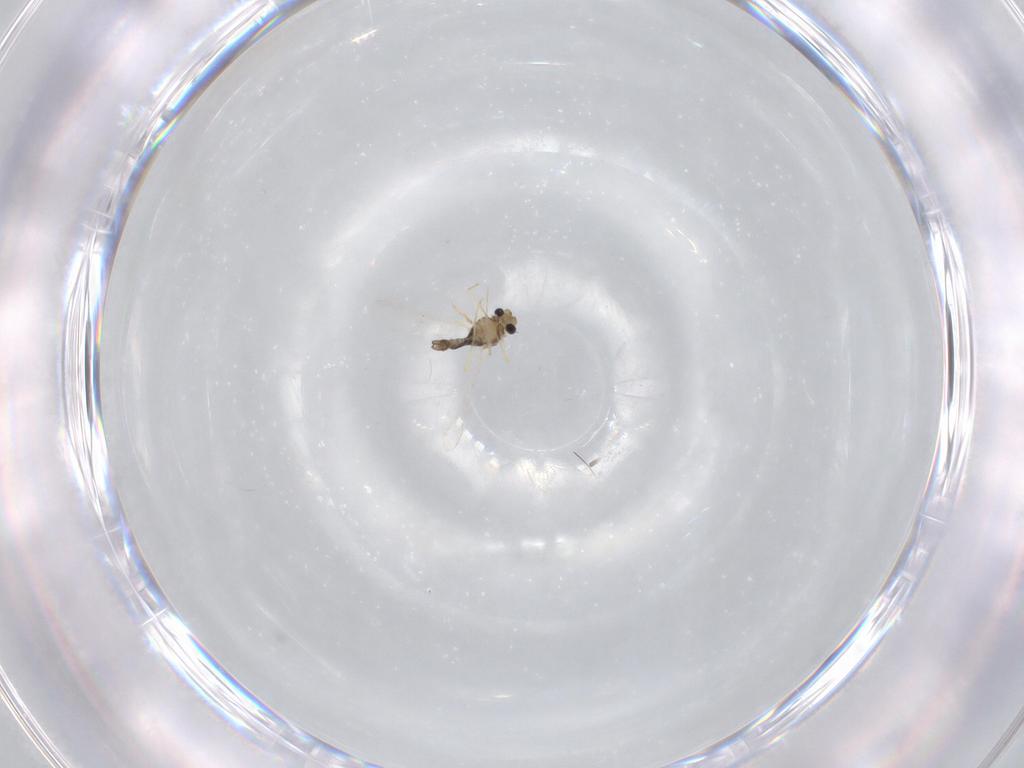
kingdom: Animalia
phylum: Arthropoda
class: Insecta
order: Diptera
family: Chironomidae
